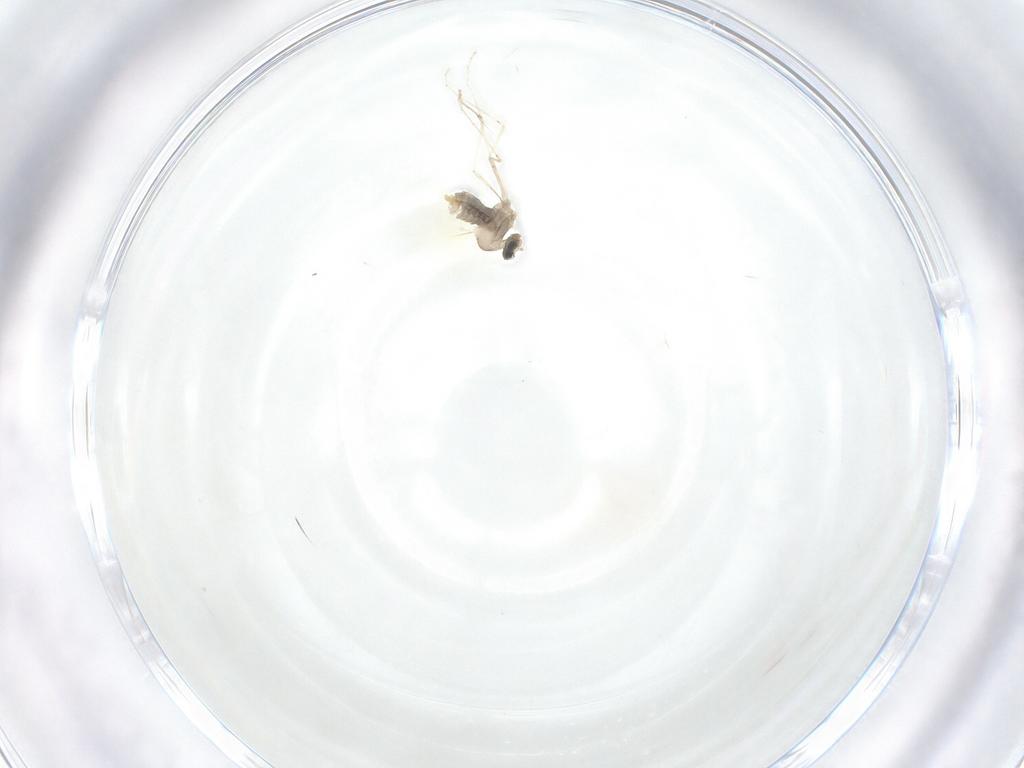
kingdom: Animalia
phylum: Arthropoda
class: Insecta
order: Diptera
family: Cecidomyiidae
